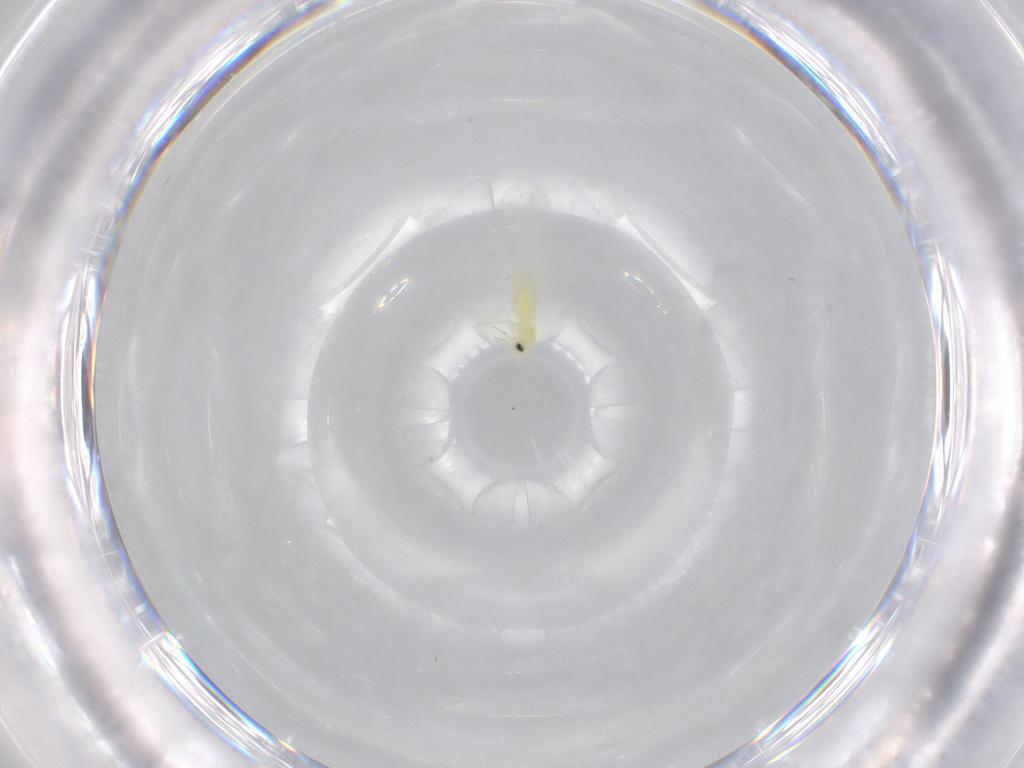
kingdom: Animalia
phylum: Arthropoda
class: Insecta
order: Hemiptera
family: Aleyrodidae
